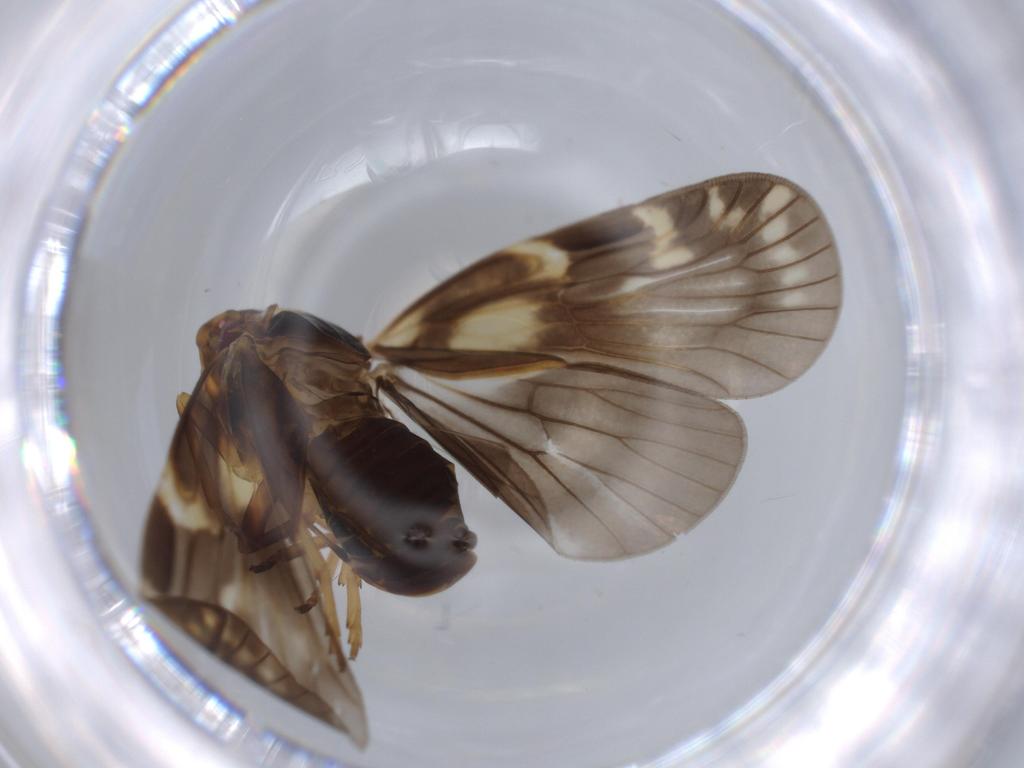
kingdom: Animalia
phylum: Arthropoda
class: Insecta
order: Hemiptera
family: Cixiidae
